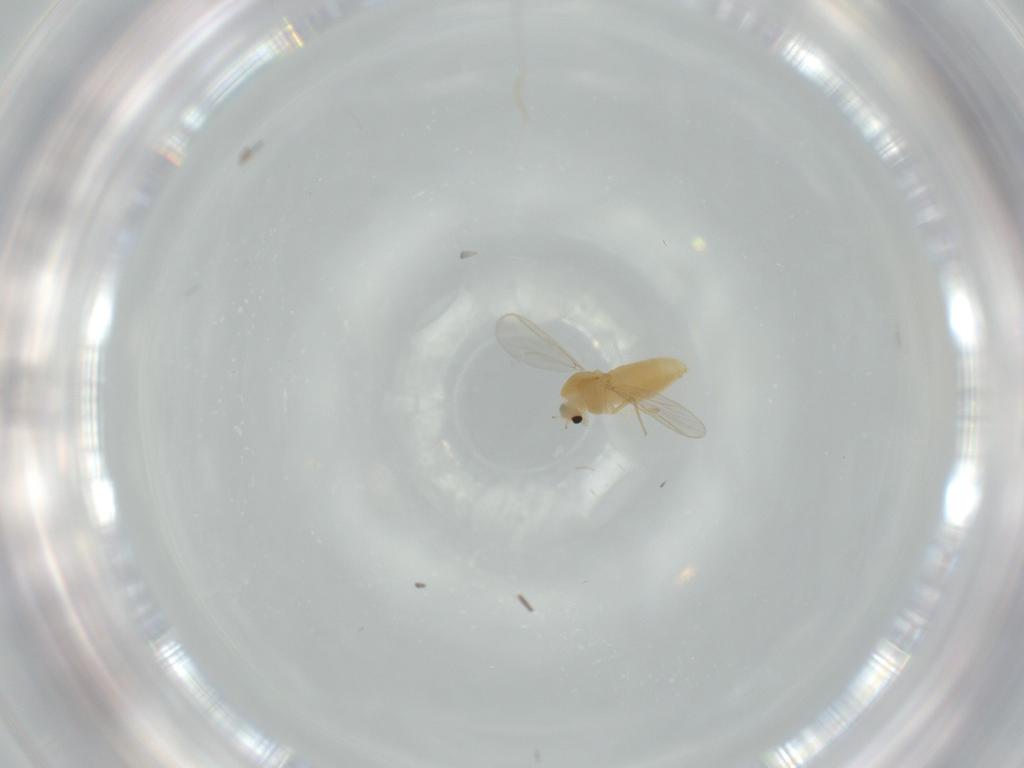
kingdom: Animalia
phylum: Arthropoda
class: Insecta
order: Diptera
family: Chironomidae
